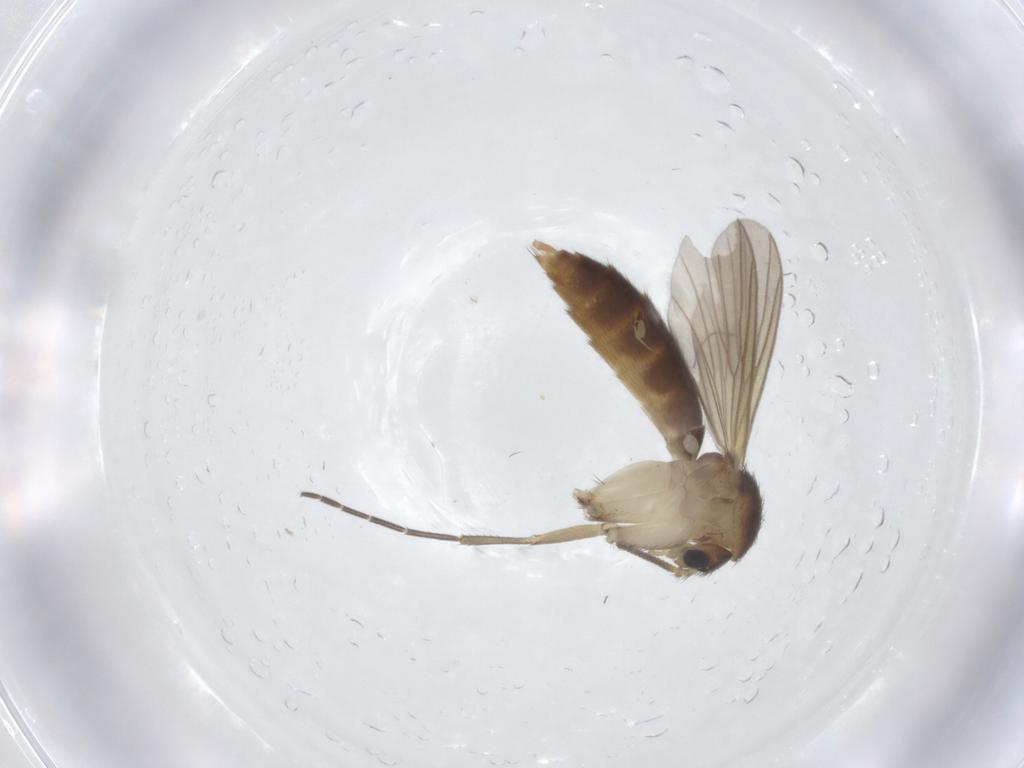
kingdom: Animalia
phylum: Arthropoda
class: Insecta
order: Diptera
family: Mycetophilidae
